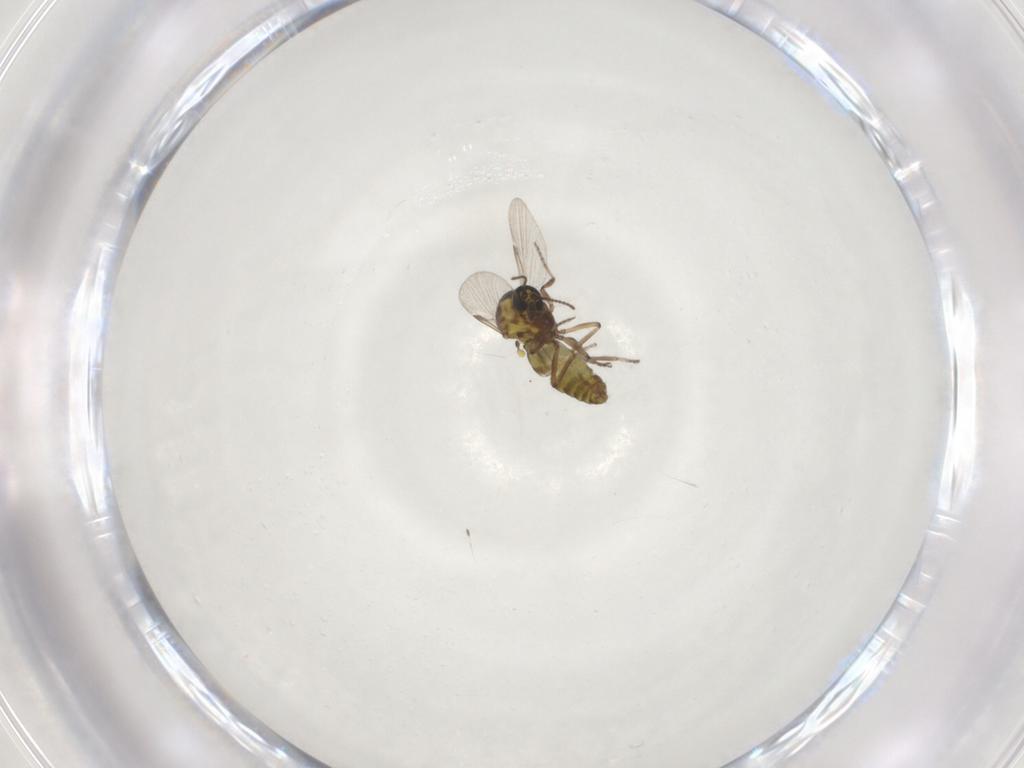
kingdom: Animalia
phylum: Arthropoda
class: Insecta
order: Diptera
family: Ceratopogonidae
